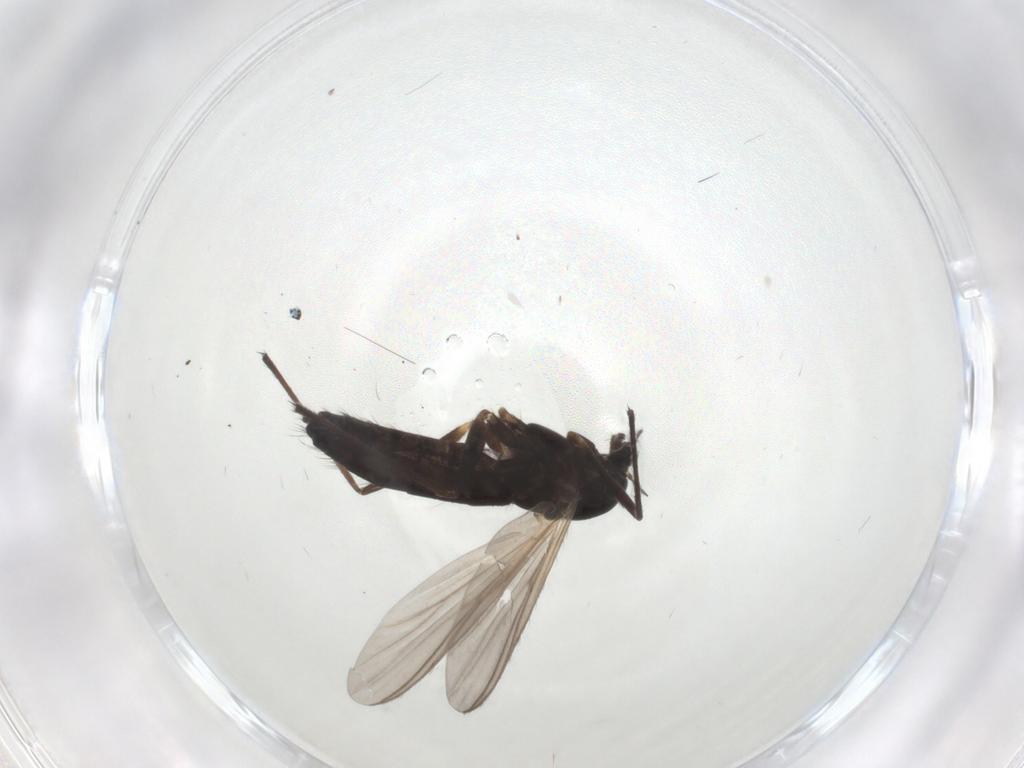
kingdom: Animalia
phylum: Arthropoda
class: Insecta
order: Diptera
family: Chironomidae
